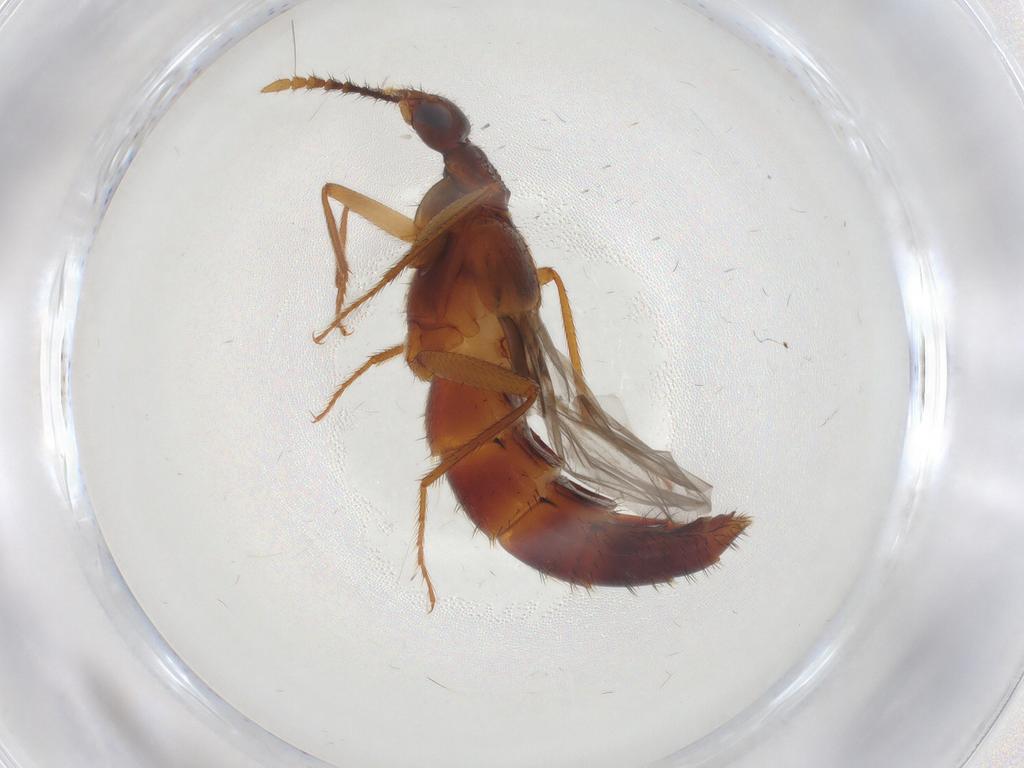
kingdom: Animalia
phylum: Arthropoda
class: Insecta
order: Coleoptera
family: Staphylinidae
